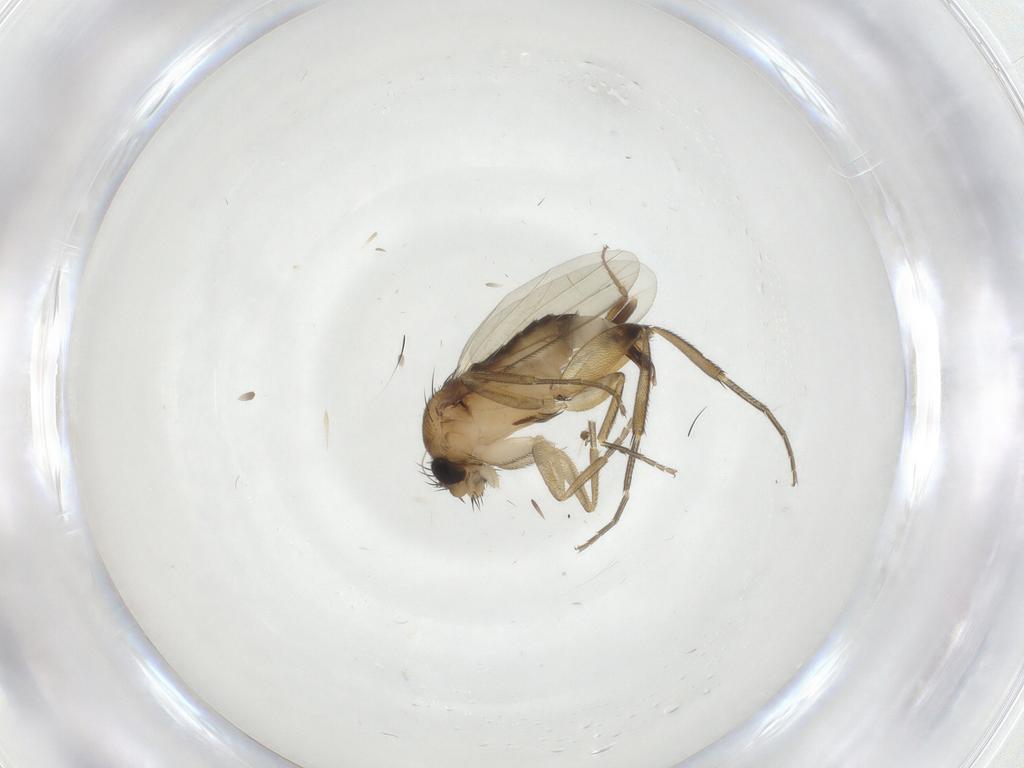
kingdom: Animalia
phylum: Arthropoda
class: Insecta
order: Diptera
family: Phoridae
